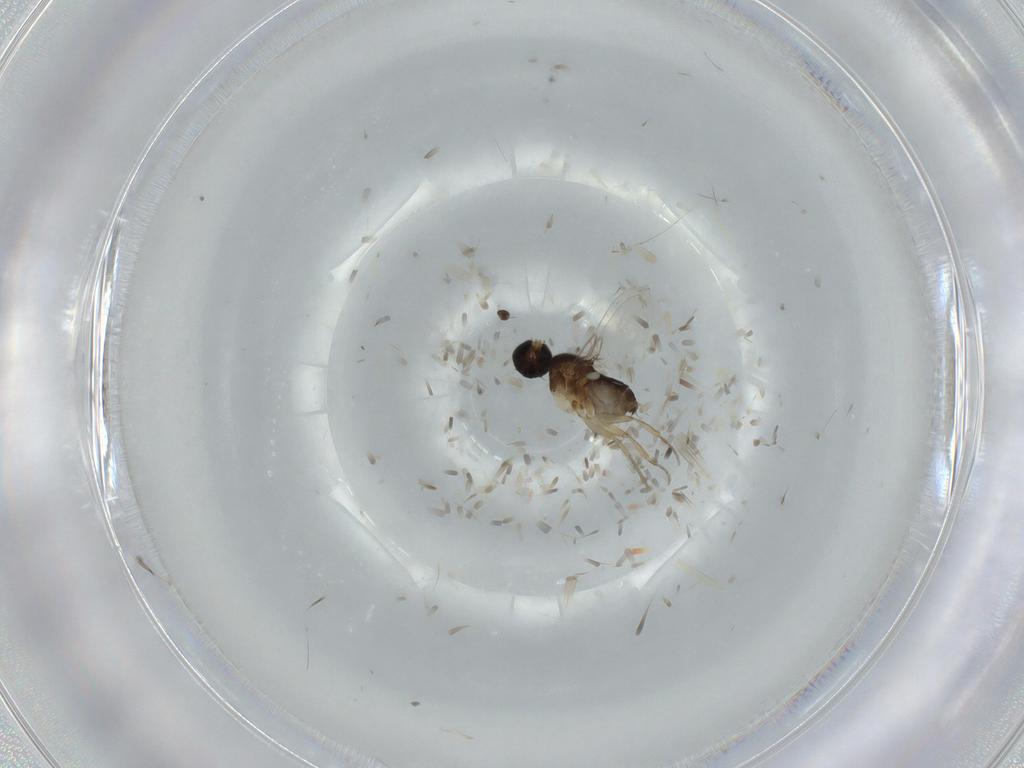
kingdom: Animalia
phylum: Arthropoda
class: Insecta
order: Diptera
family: Phoridae
